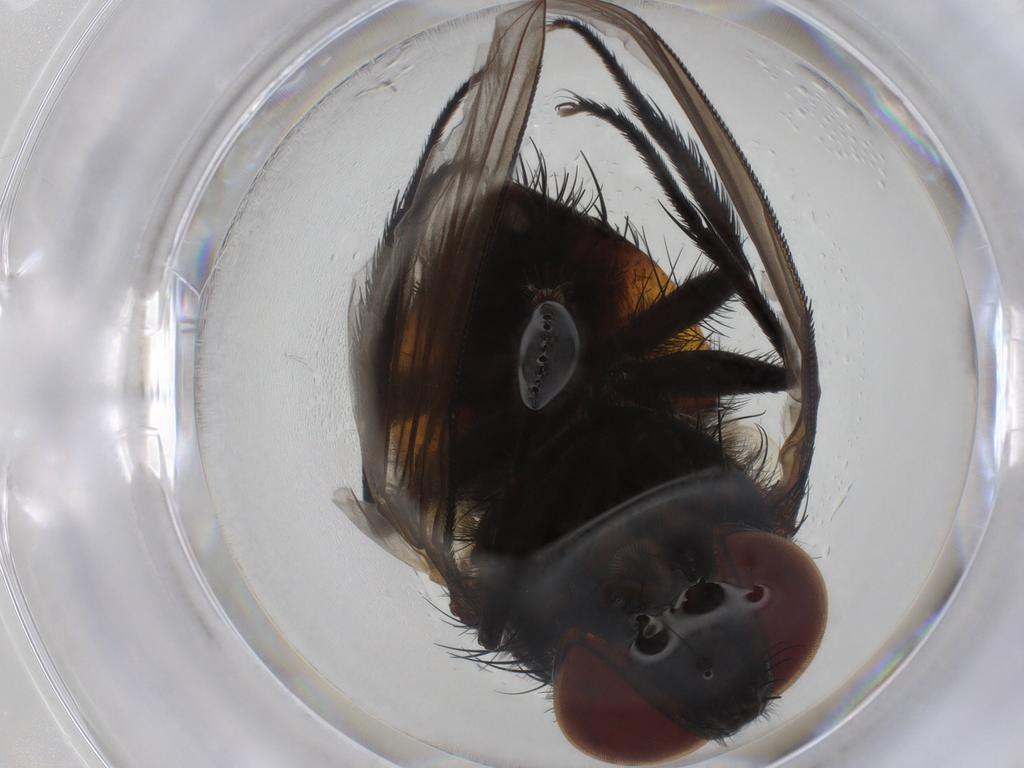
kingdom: Animalia
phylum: Arthropoda
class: Insecta
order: Diptera
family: Tachinidae
